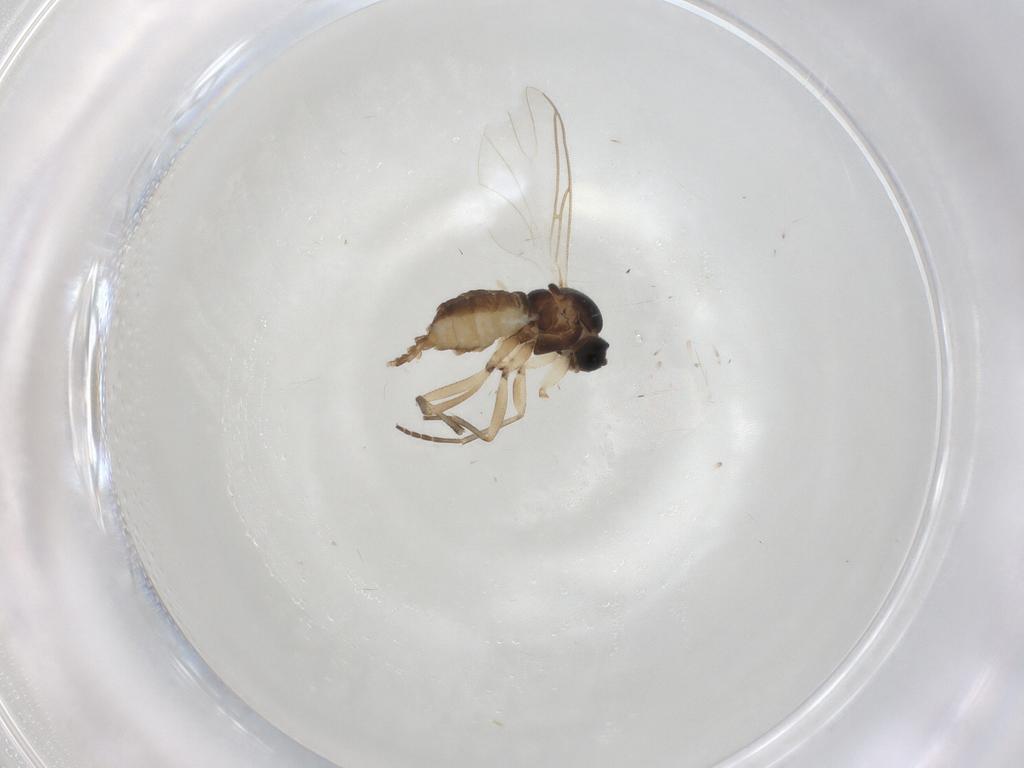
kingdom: Animalia
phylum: Arthropoda
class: Insecta
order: Diptera
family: Sciaridae
